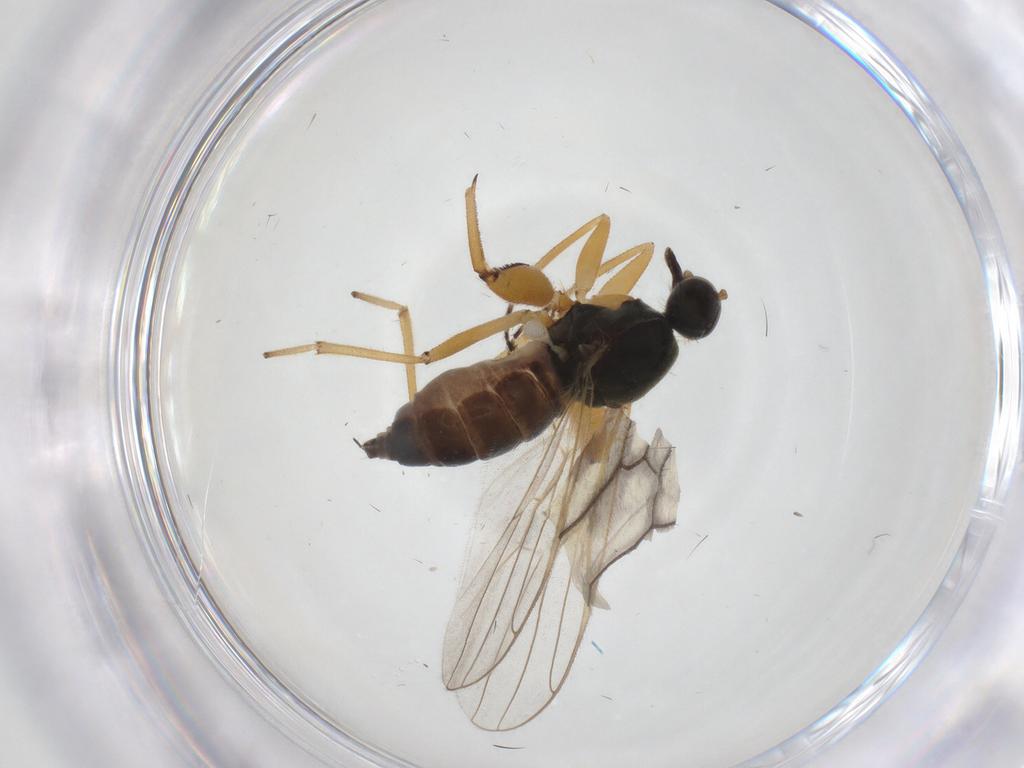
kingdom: Animalia
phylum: Arthropoda
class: Insecta
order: Diptera
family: Hybotidae
